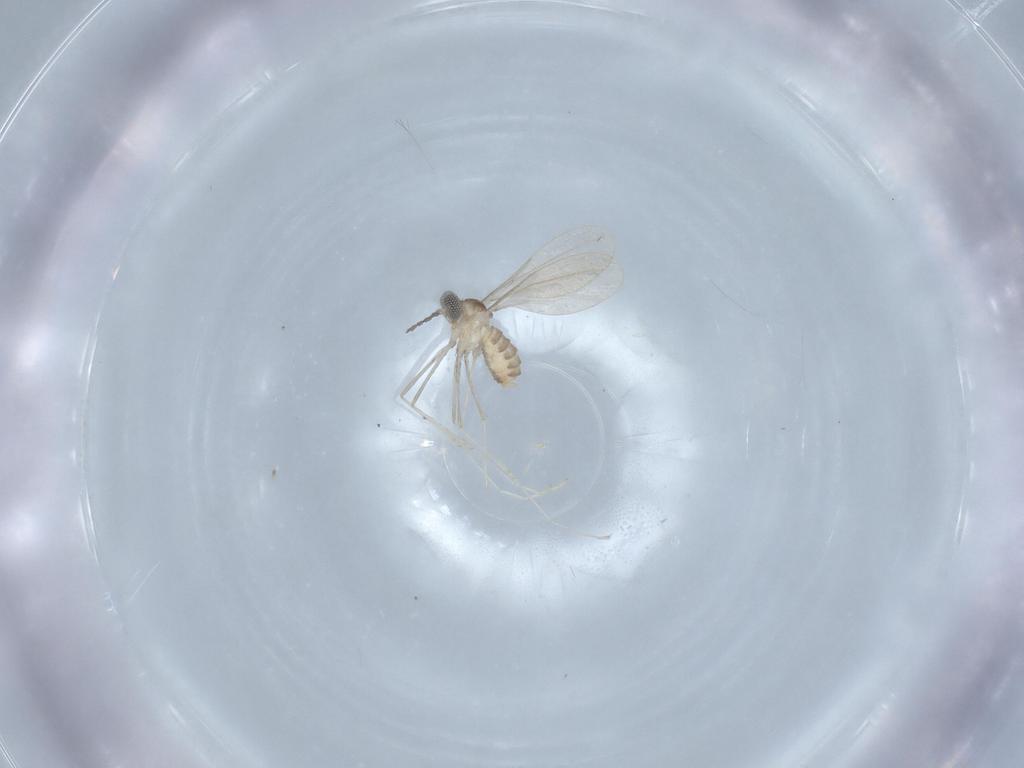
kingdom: Animalia
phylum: Arthropoda
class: Insecta
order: Diptera
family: Phoridae
